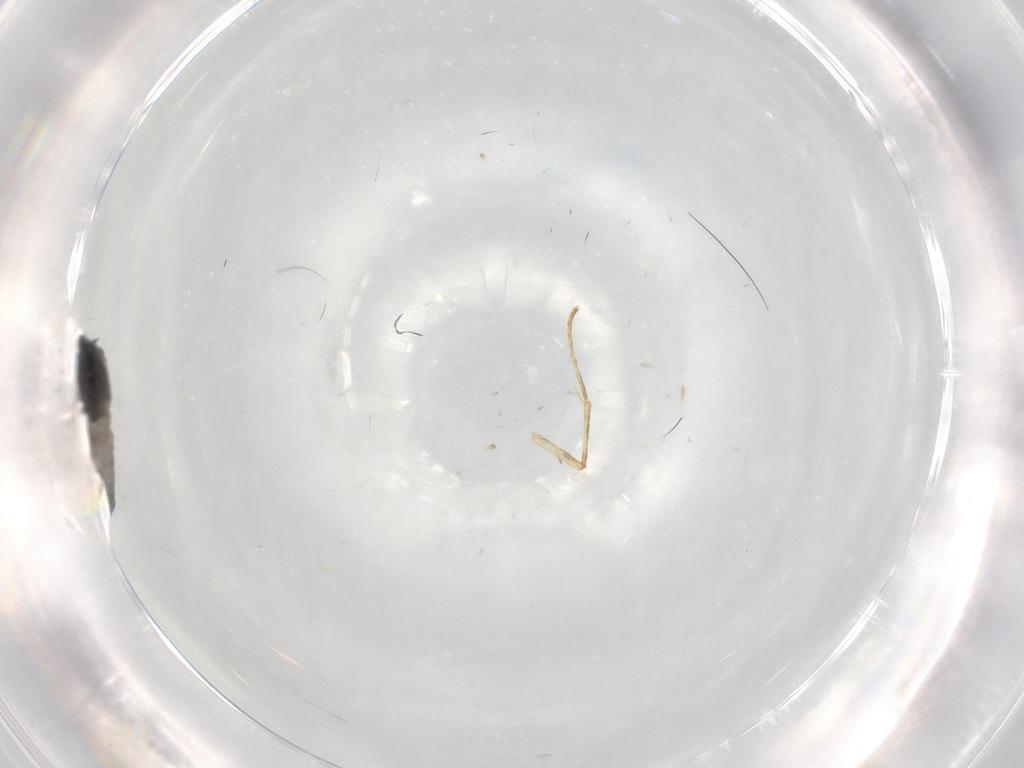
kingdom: Animalia
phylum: Arthropoda
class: Insecta
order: Diptera
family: Chironomidae
